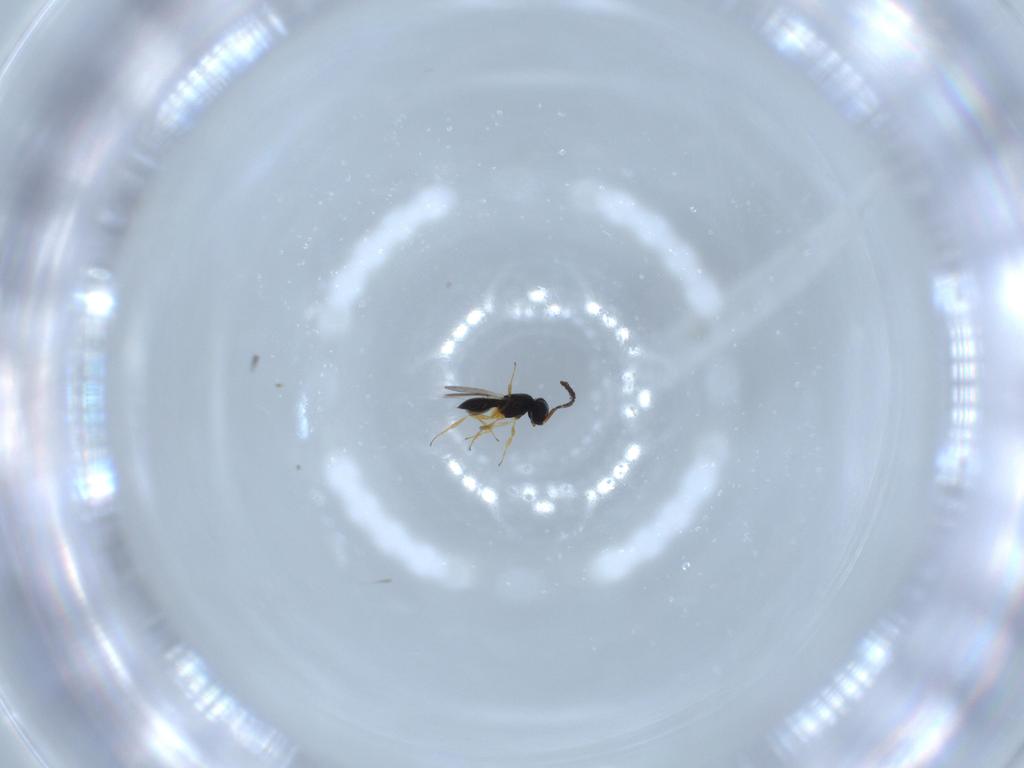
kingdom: Animalia
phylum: Arthropoda
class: Insecta
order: Hymenoptera
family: Scelionidae
